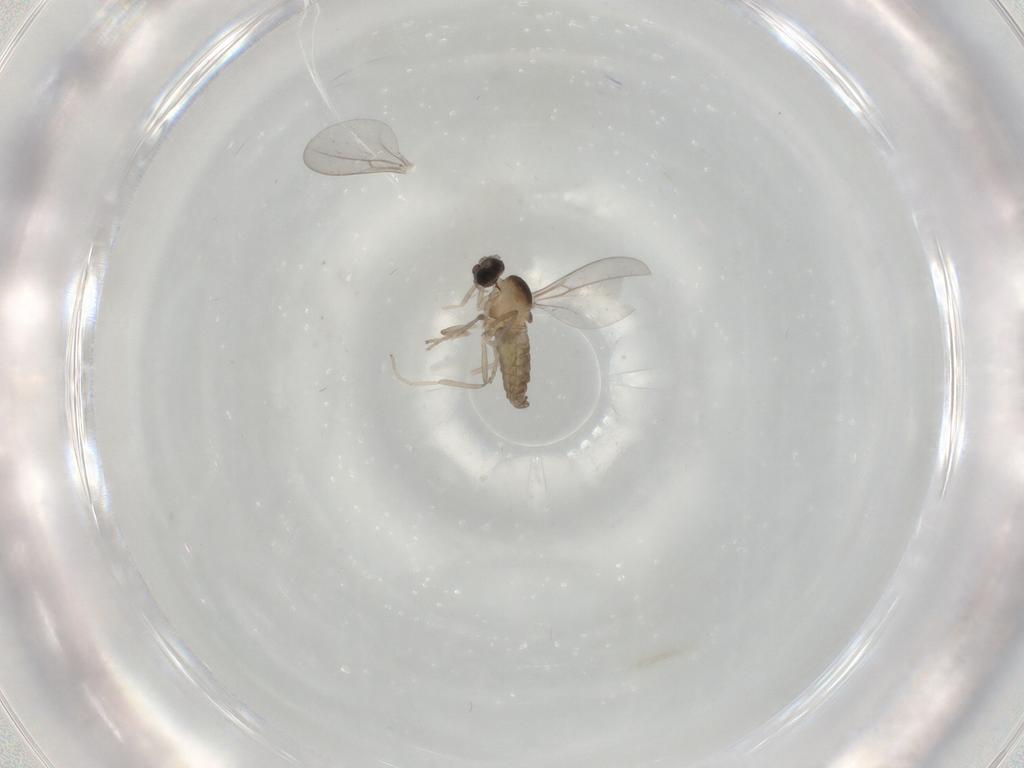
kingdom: Animalia
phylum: Arthropoda
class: Insecta
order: Diptera
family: Cecidomyiidae
